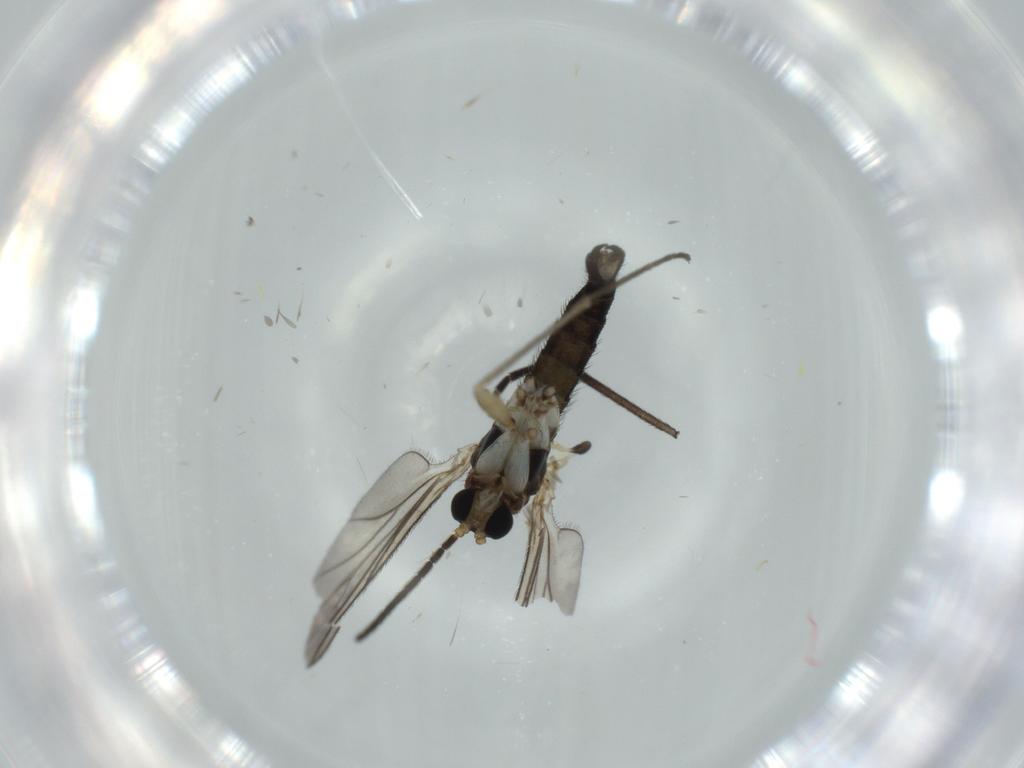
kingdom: Animalia
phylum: Arthropoda
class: Insecta
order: Diptera
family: Sciaridae
